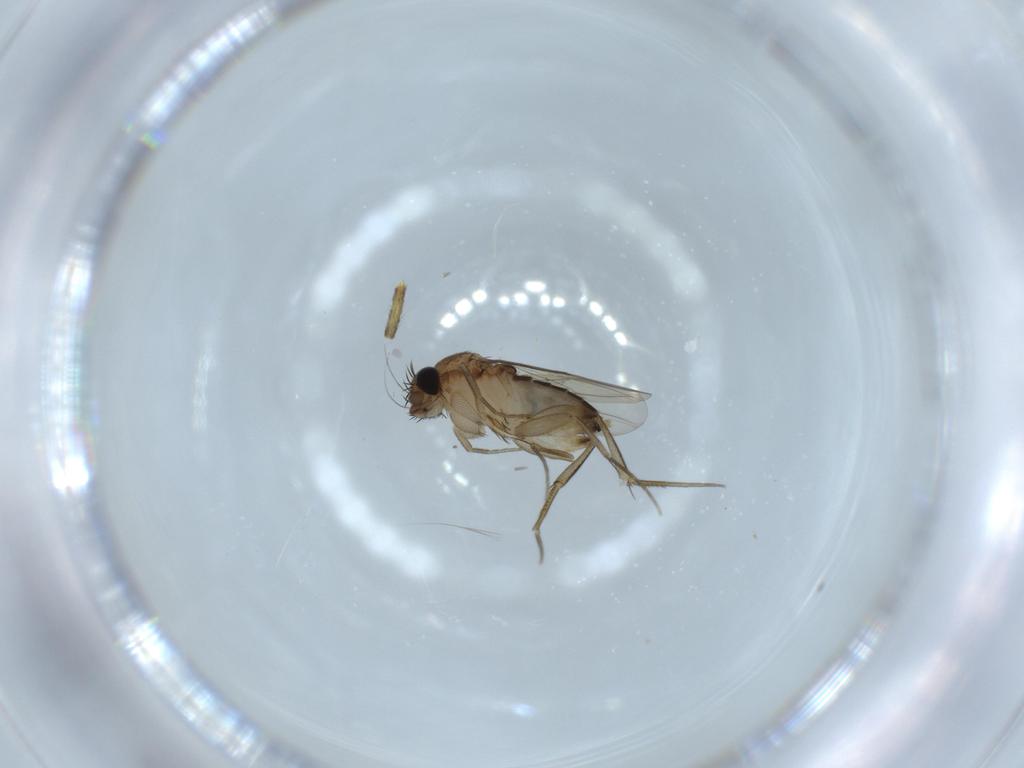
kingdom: Animalia
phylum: Arthropoda
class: Insecta
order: Diptera
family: Phoridae
